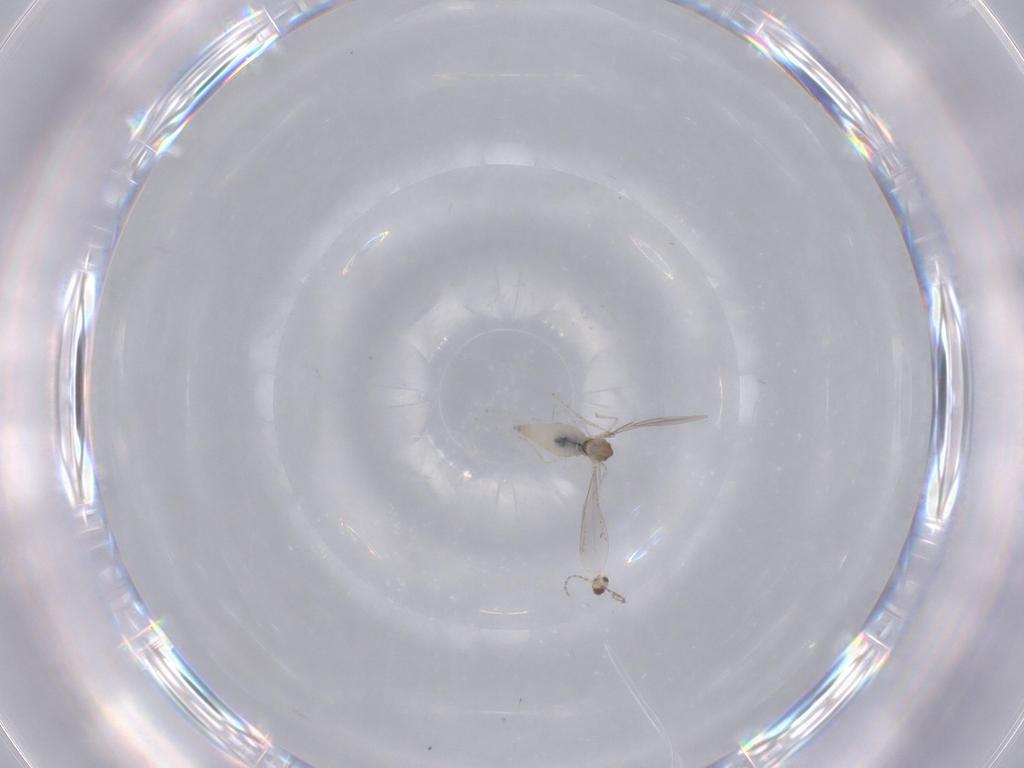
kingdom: Animalia
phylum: Arthropoda
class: Insecta
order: Diptera
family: Cecidomyiidae
